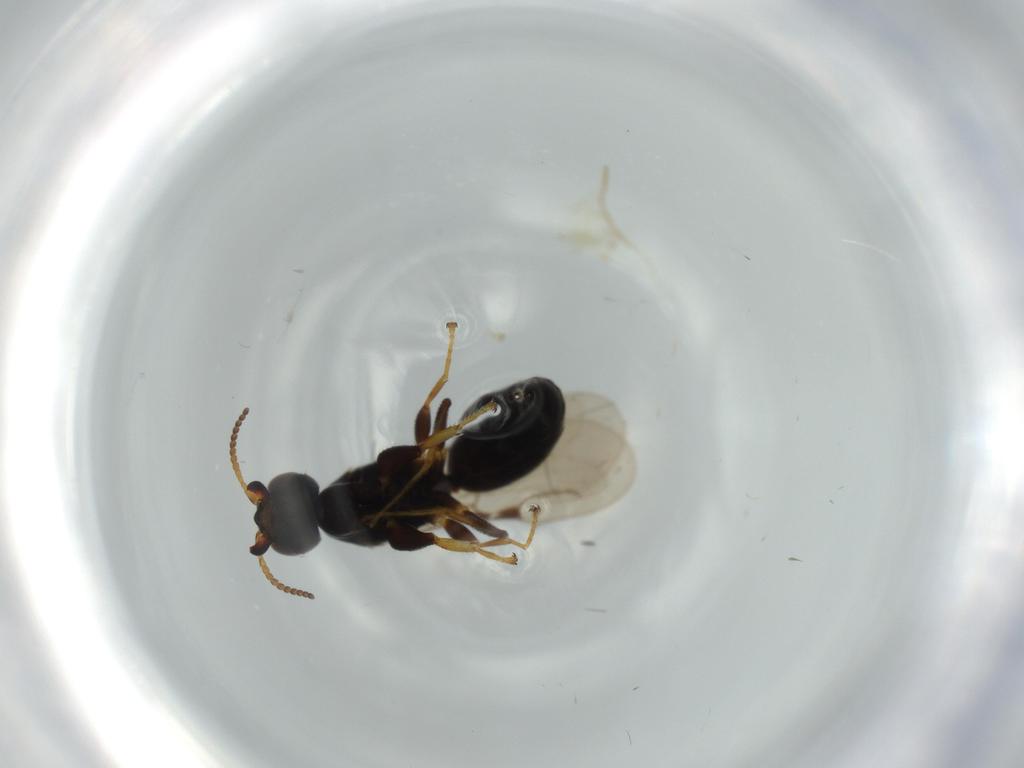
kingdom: Animalia
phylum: Arthropoda
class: Insecta
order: Hymenoptera
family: Bethylidae
